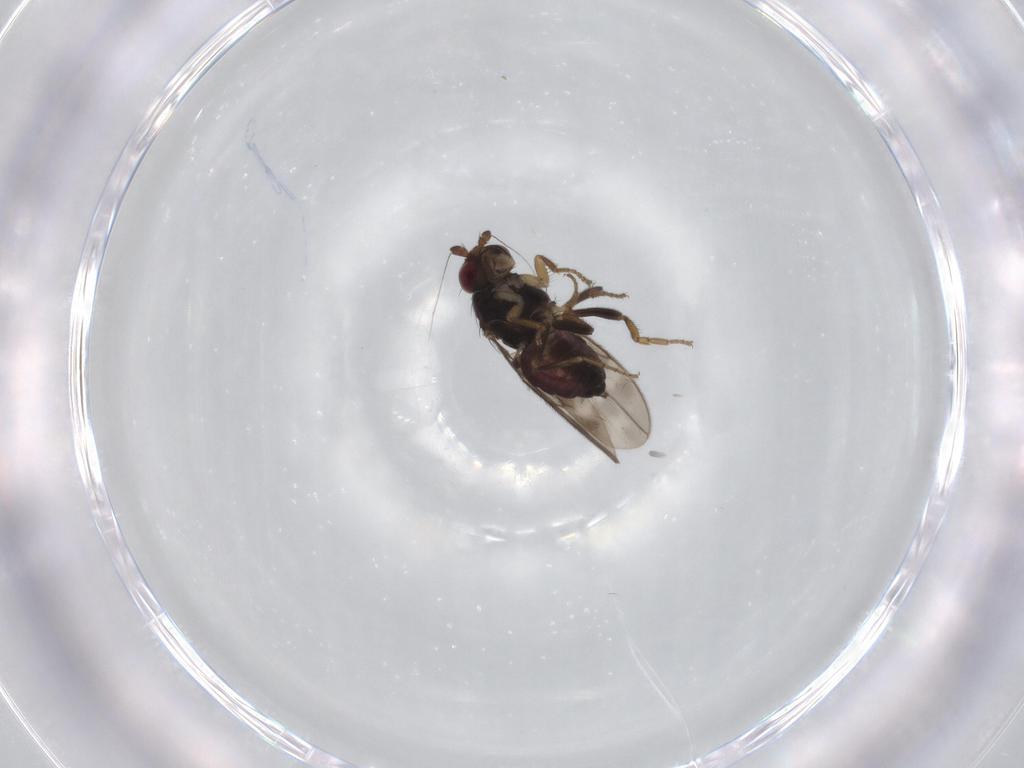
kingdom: Animalia
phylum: Arthropoda
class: Insecta
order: Diptera
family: Sphaeroceridae
